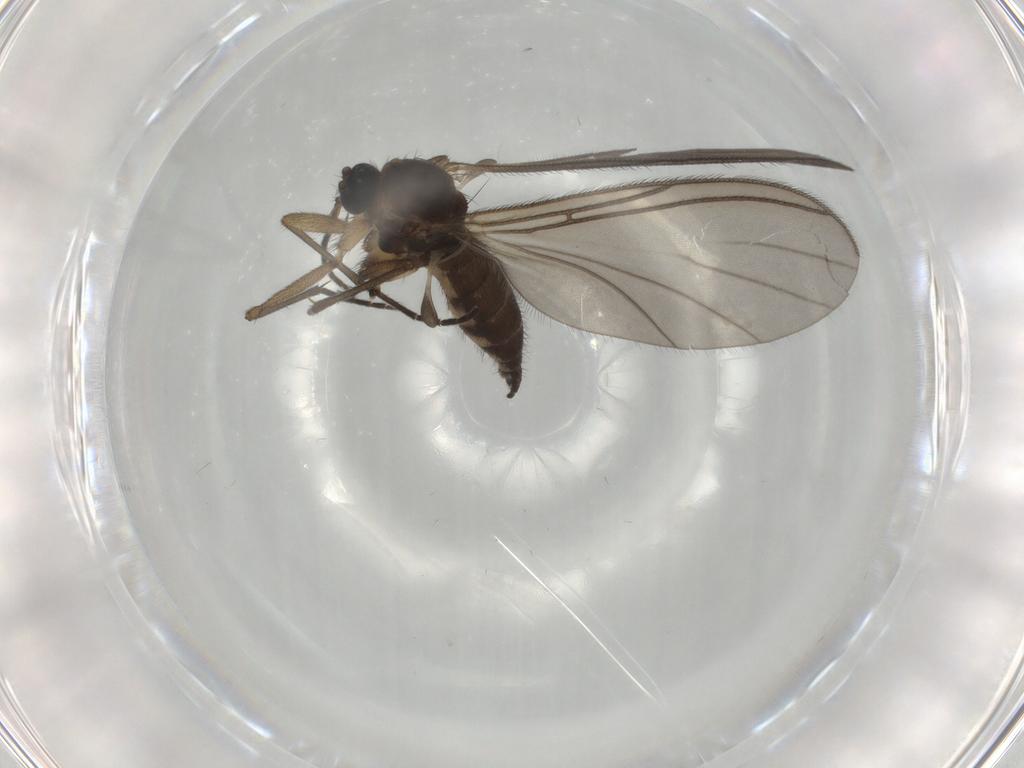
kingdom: Animalia
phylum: Arthropoda
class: Insecta
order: Diptera
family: Sciaridae
